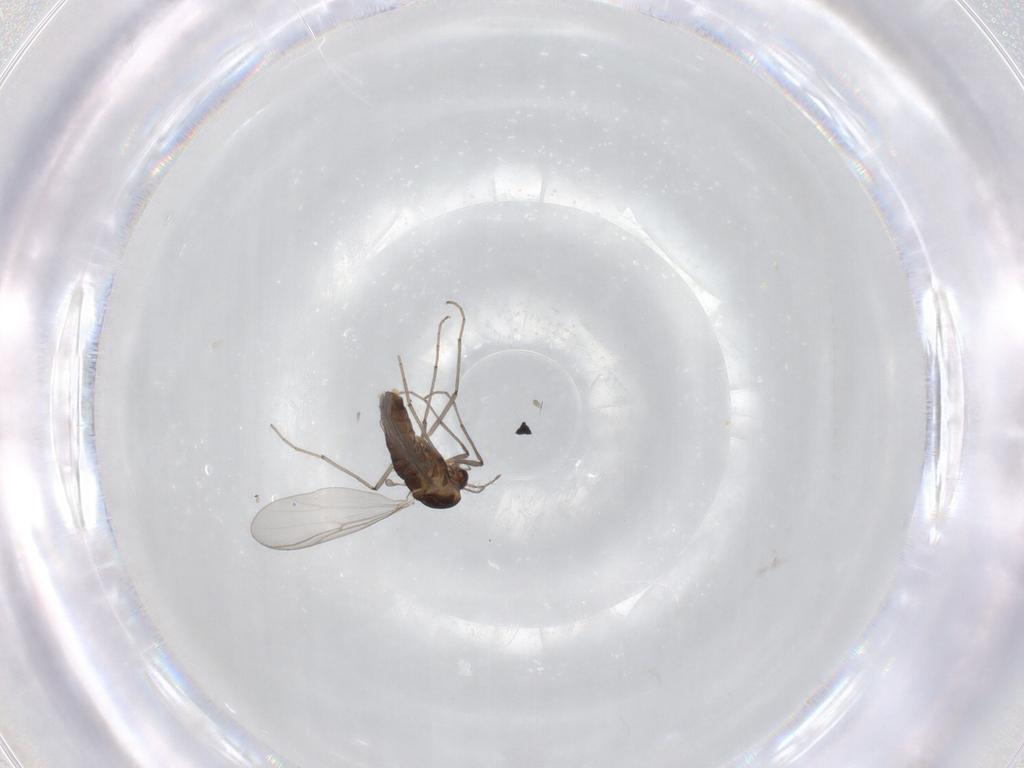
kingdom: Animalia
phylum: Arthropoda
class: Insecta
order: Diptera
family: Chironomidae
